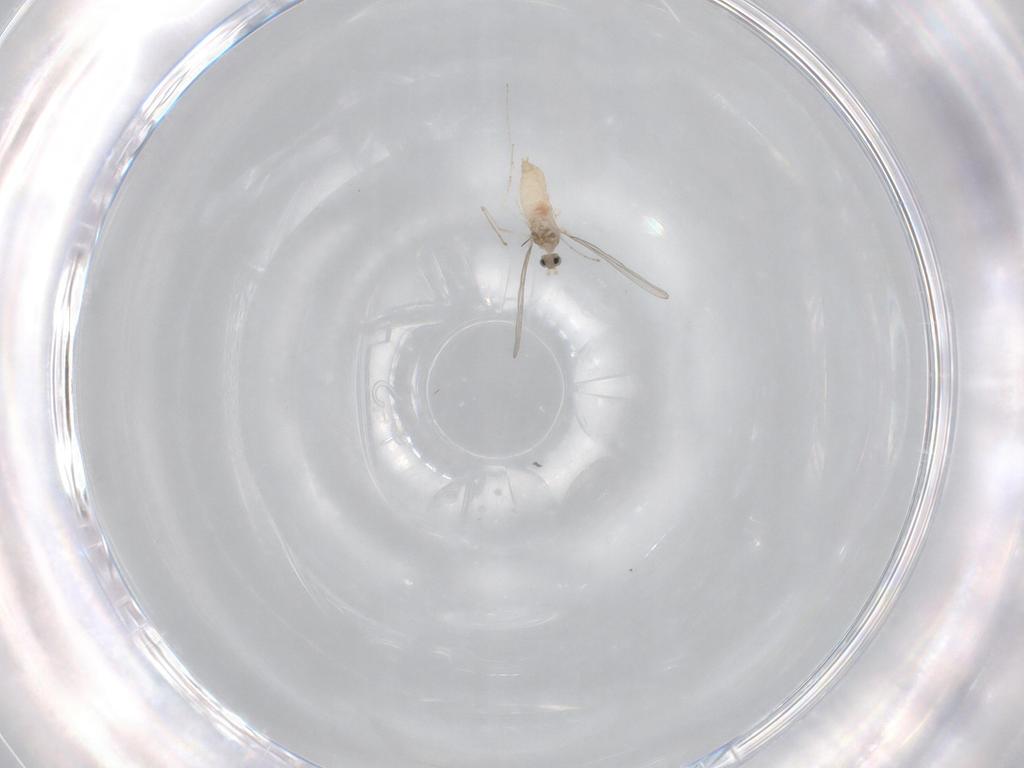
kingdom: Animalia
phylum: Arthropoda
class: Insecta
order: Diptera
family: Cecidomyiidae
